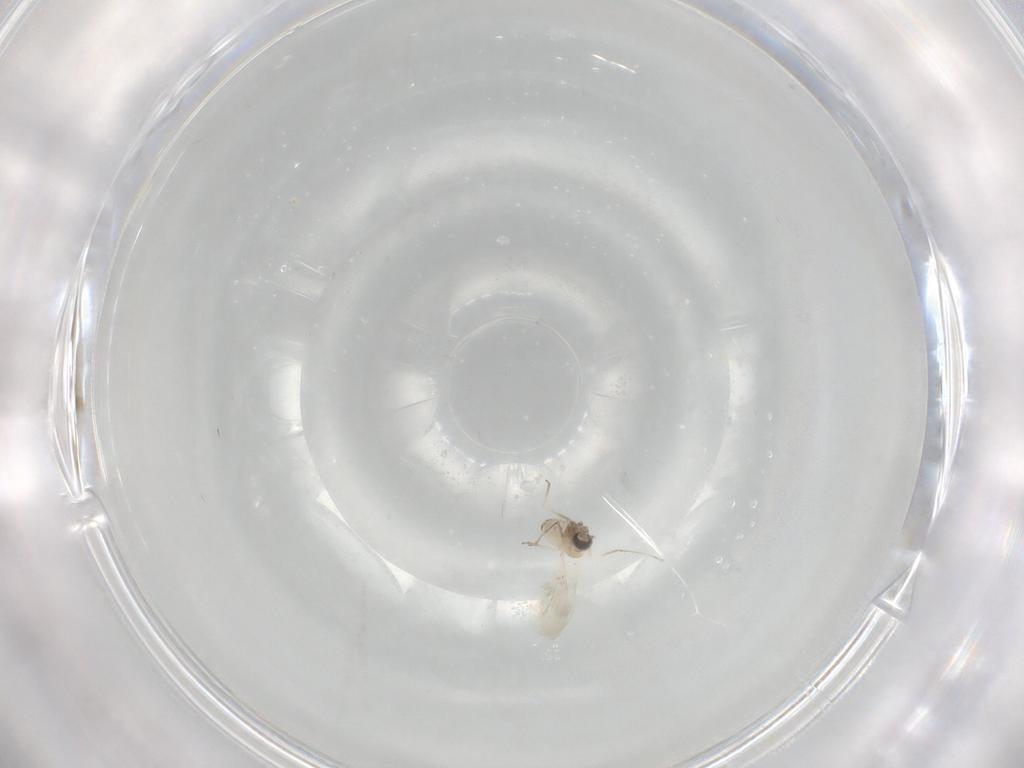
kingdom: Animalia
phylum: Arthropoda
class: Insecta
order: Diptera
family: Cecidomyiidae
